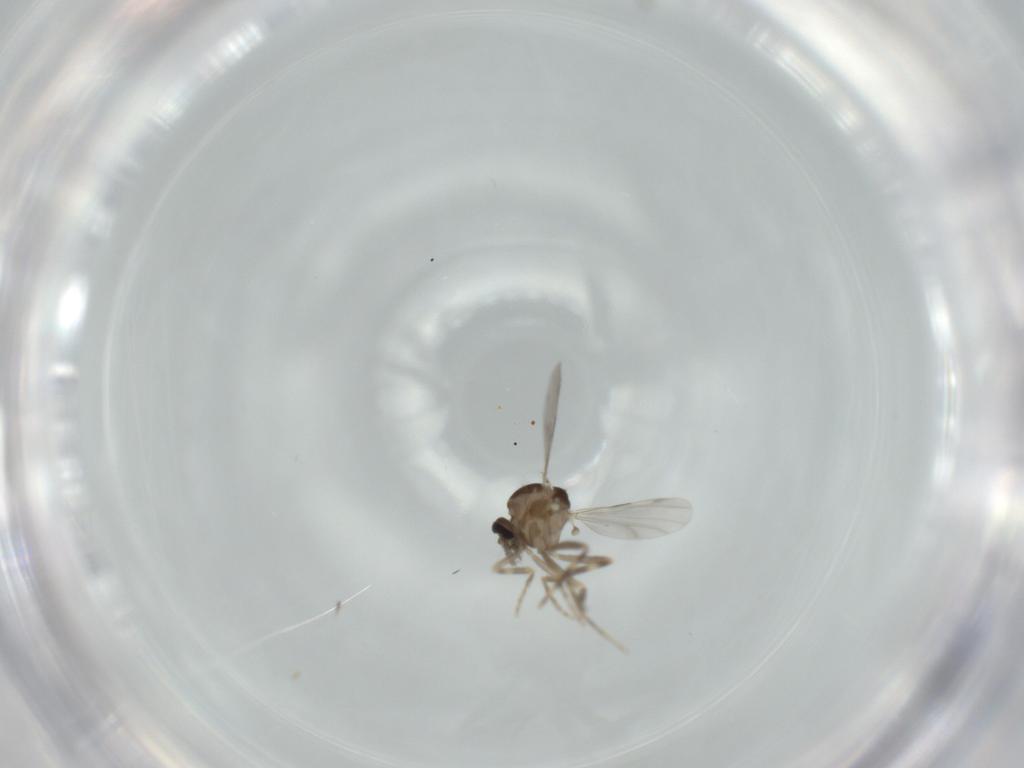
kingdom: Animalia
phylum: Arthropoda
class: Insecta
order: Diptera
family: Ceratopogonidae
